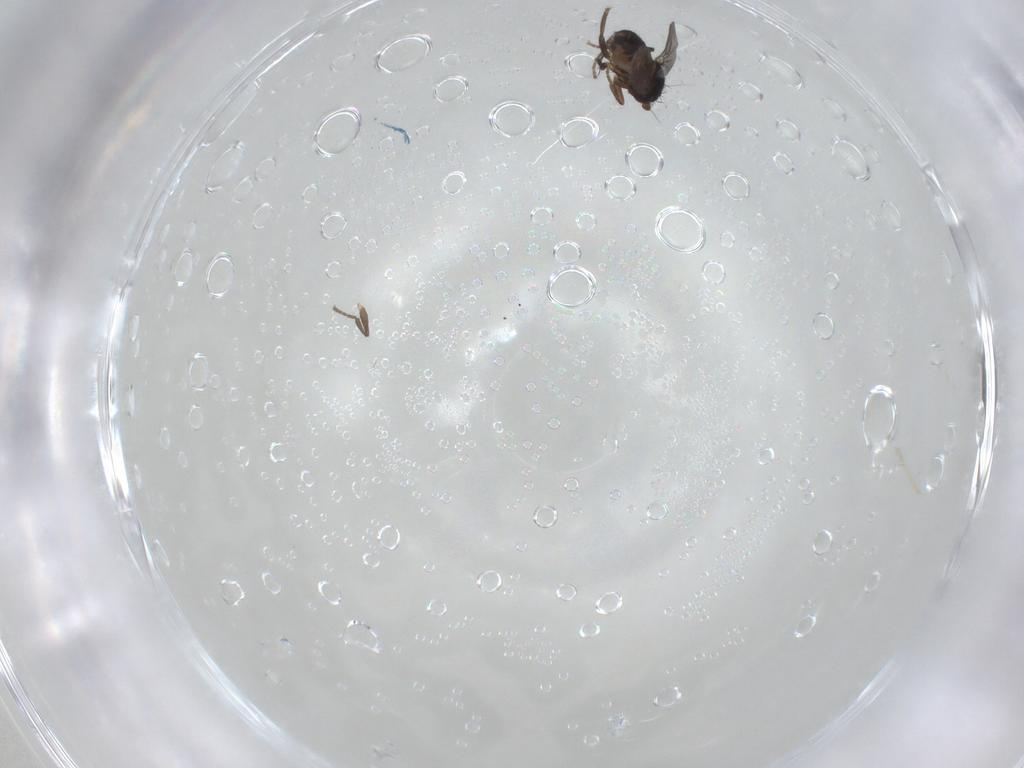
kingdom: Animalia
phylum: Arthropoda
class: Insecta
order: Diptera
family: Sphaeroceridae
